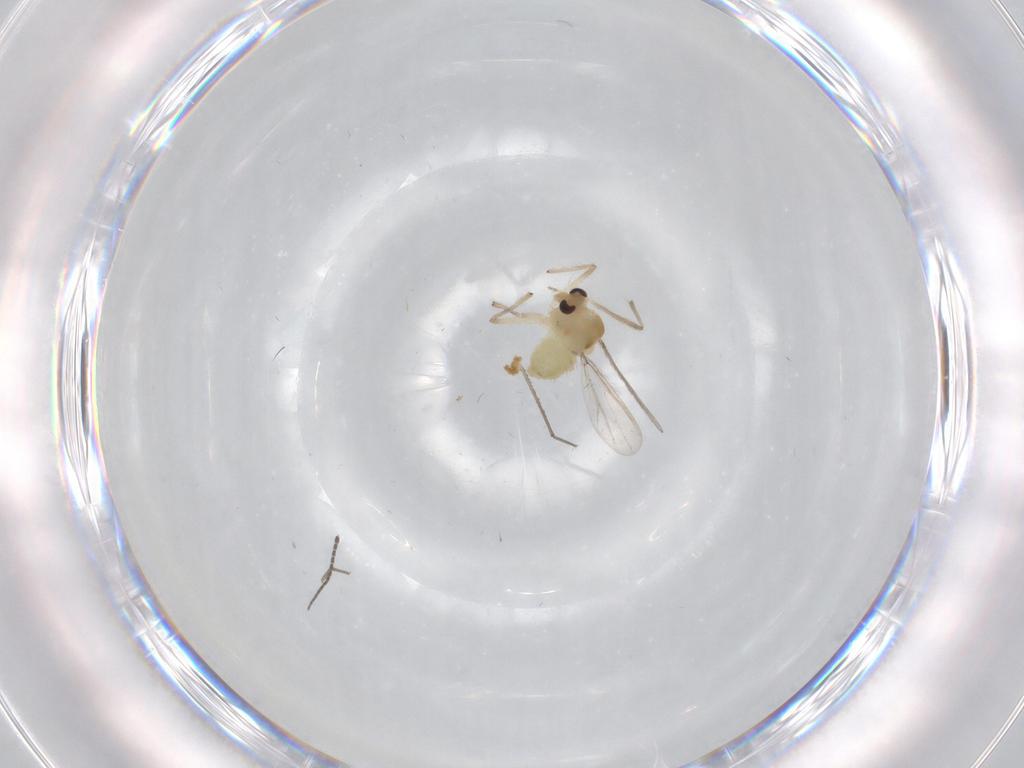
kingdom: Animalia
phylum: Arthropoda
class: Insecta
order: Diptera
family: Chironomidae
